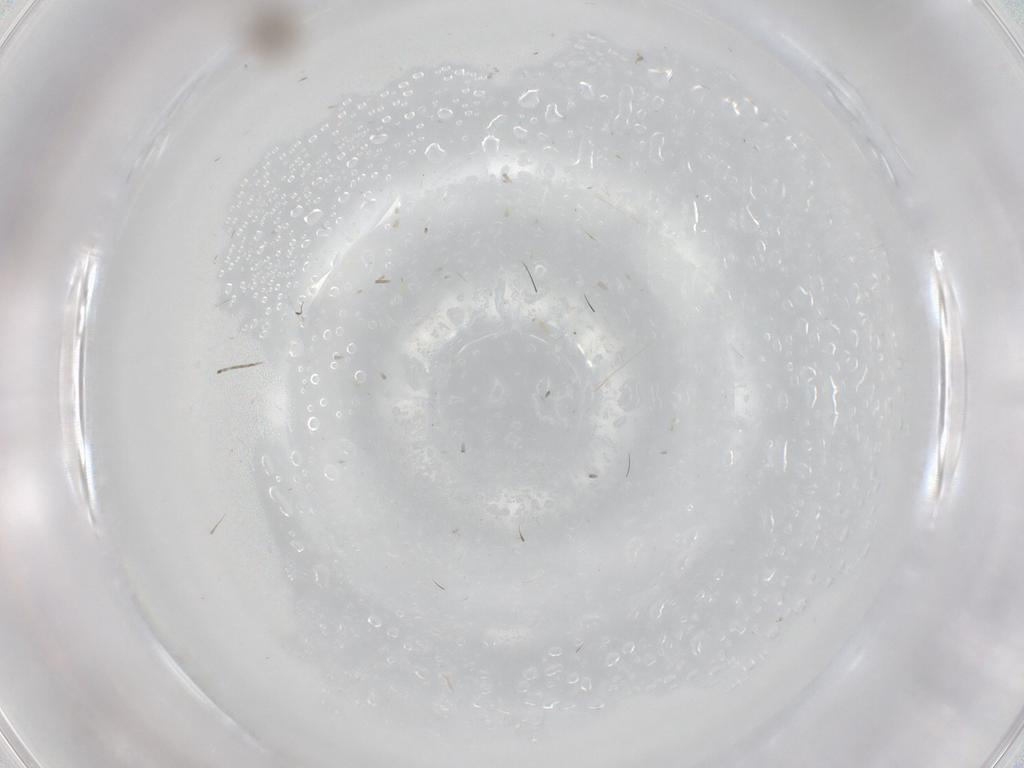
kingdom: Animalia
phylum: Arthropoda
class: Insecta
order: Diptera
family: Cecidomyiidae
